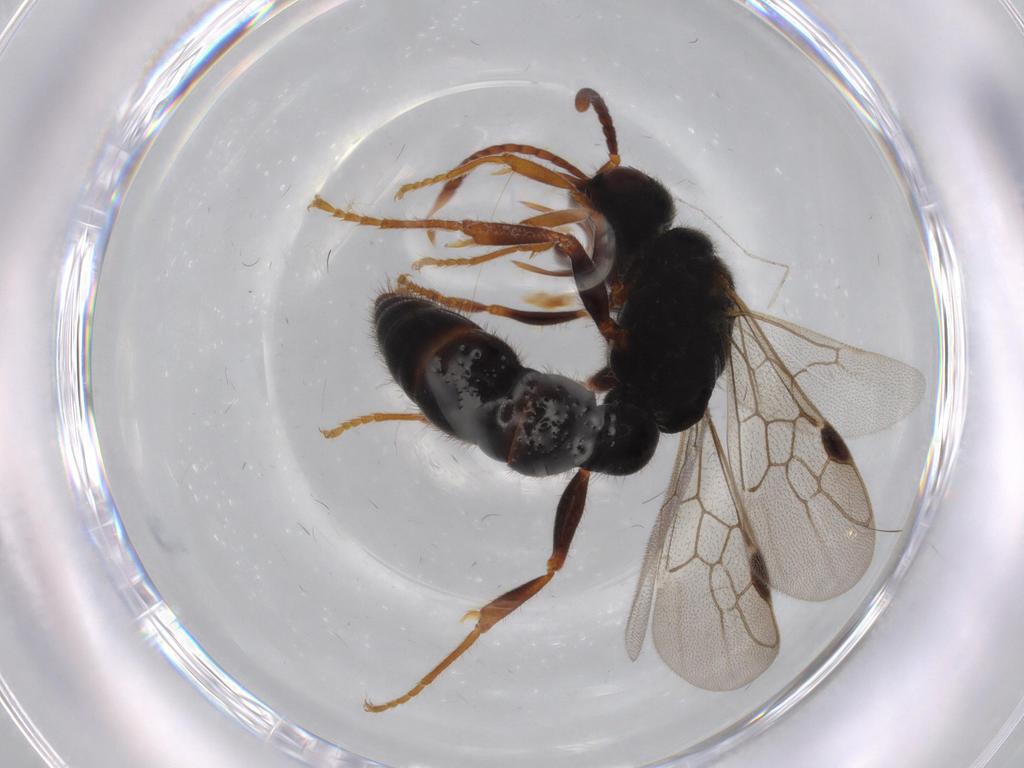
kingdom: Animalia
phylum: Arthropoda
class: Insecta
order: Hymenoptera
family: Formicidae
